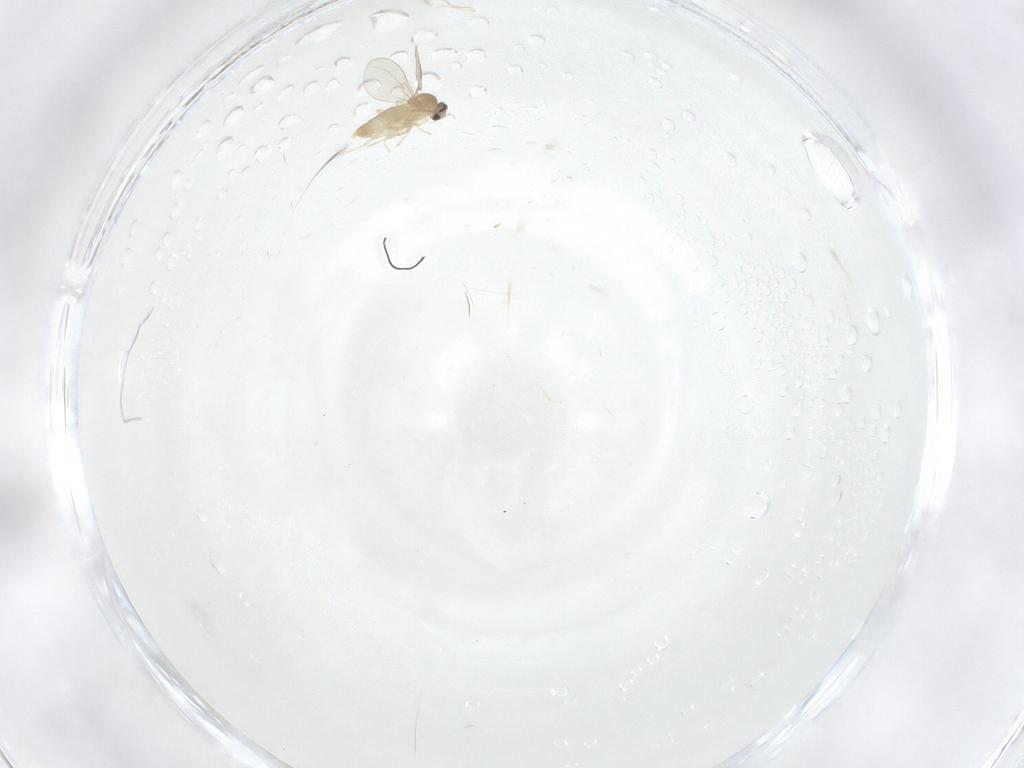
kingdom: Animalia
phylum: Arthropoda
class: Insecta
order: Diptera
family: Cecidomyiidae
